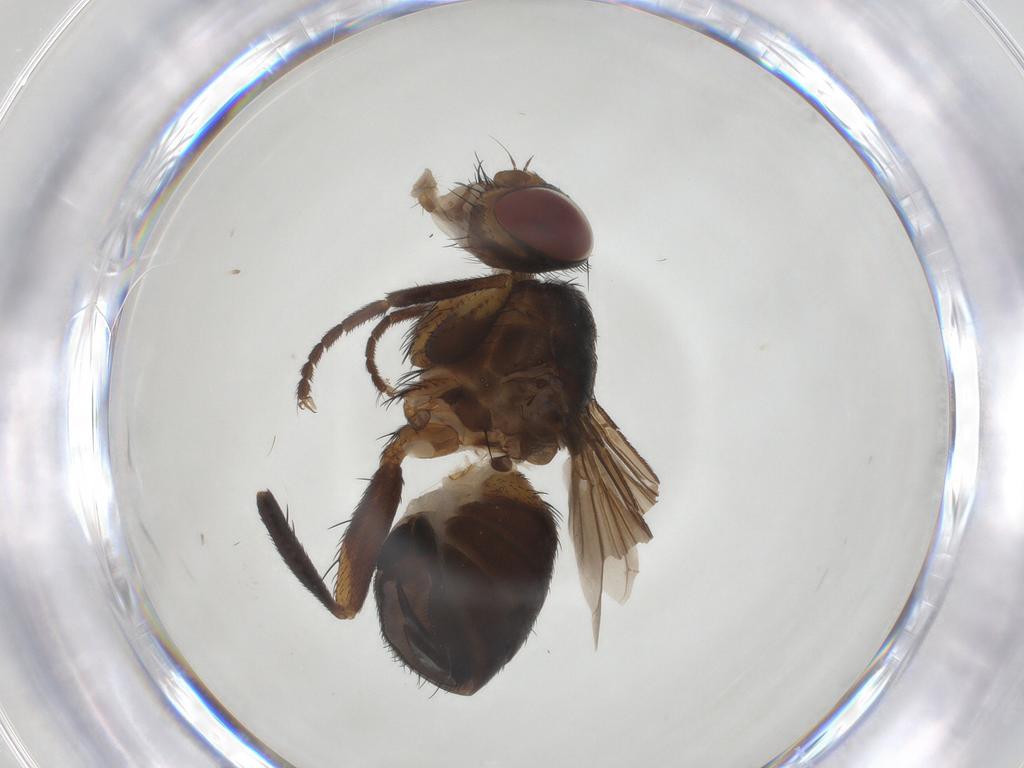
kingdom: Animalia
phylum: Arthropoda
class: Insecta
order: Diptera
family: Tachinidae
